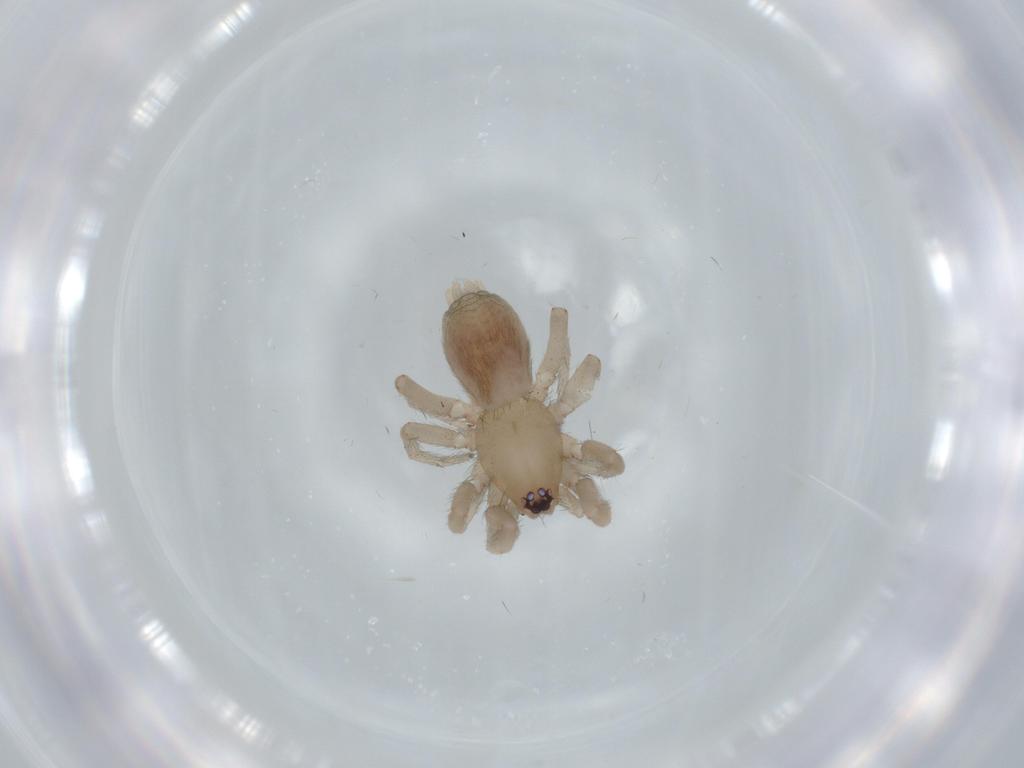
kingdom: Animalia
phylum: Arthropoda
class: Arachnida
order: Araneae
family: Gnaphosidae
